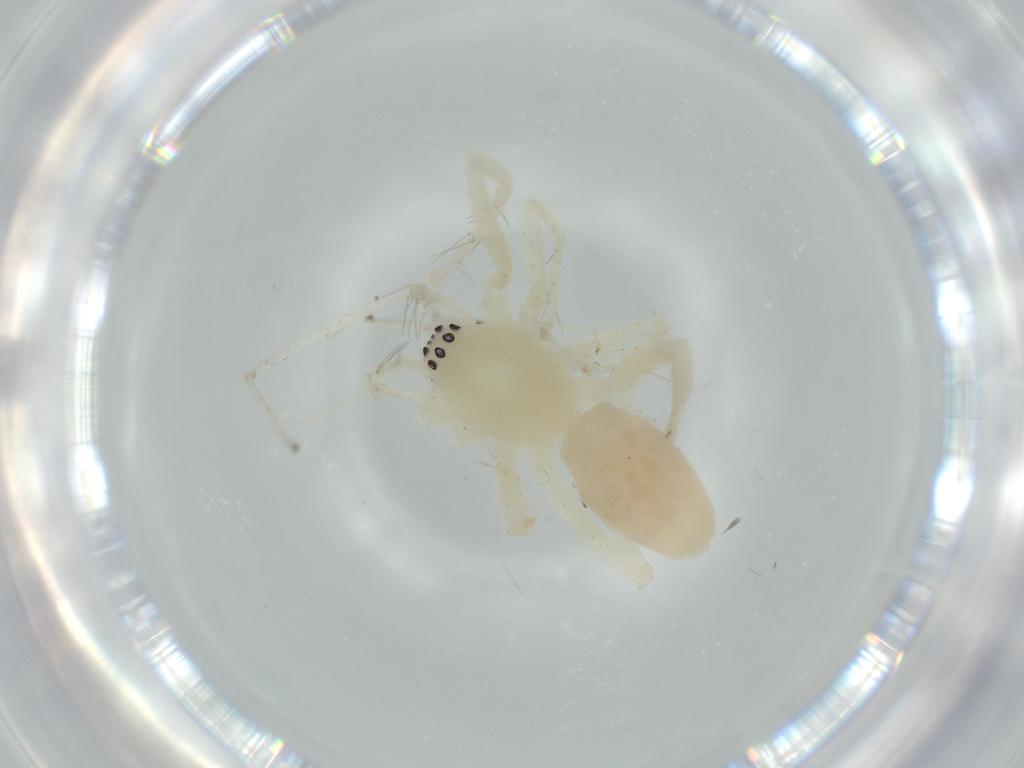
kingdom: Animalia
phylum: Arthropoda
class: Arachnida
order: Araneae
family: Anyphaenidae
